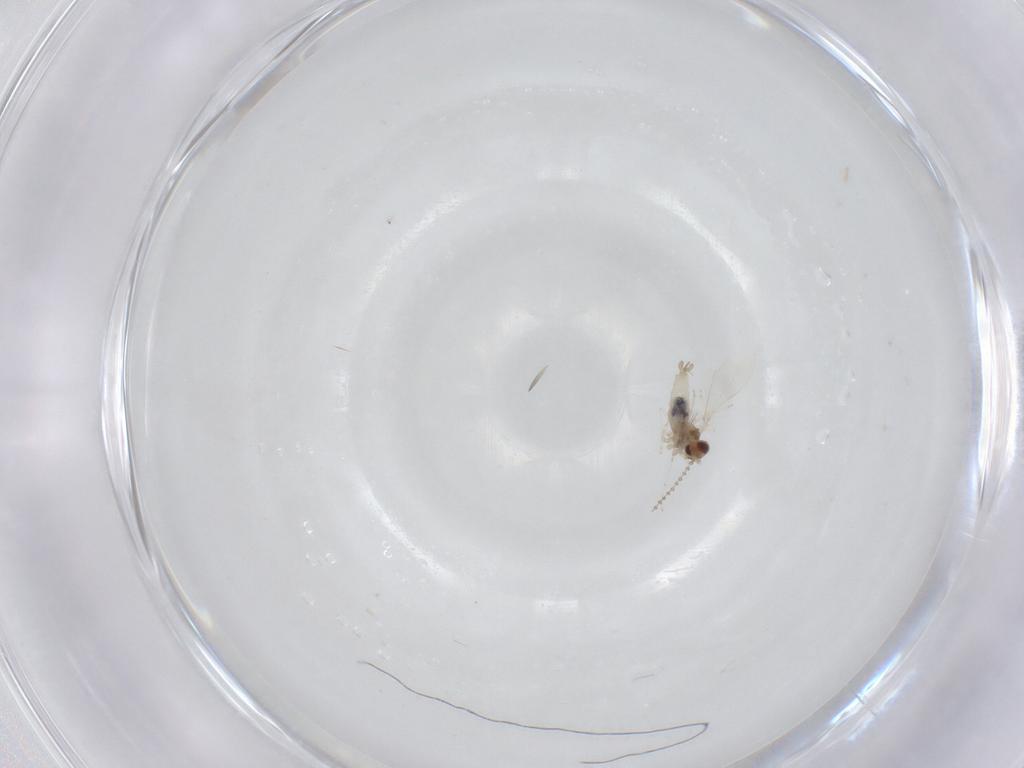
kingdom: Animalia
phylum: Arthropoda
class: Insecta
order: Diptera
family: Cecidomyiidae
